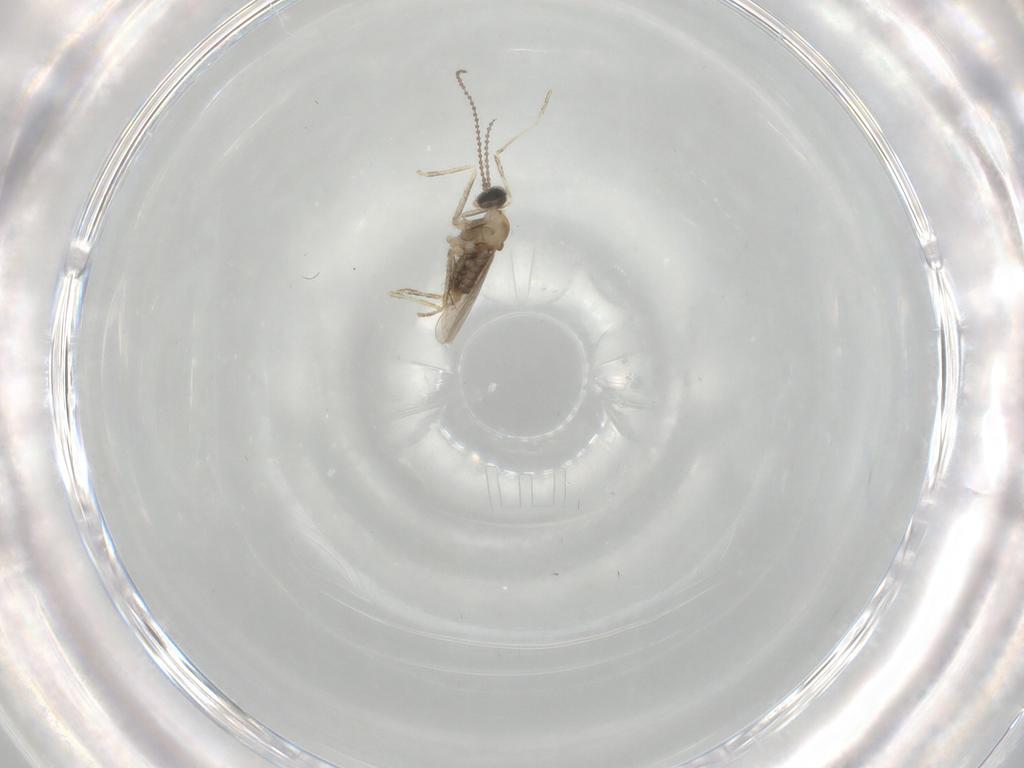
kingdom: Animalia
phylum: Arthropoda
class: Insecta
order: Diptera
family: Cecidomyiidae
